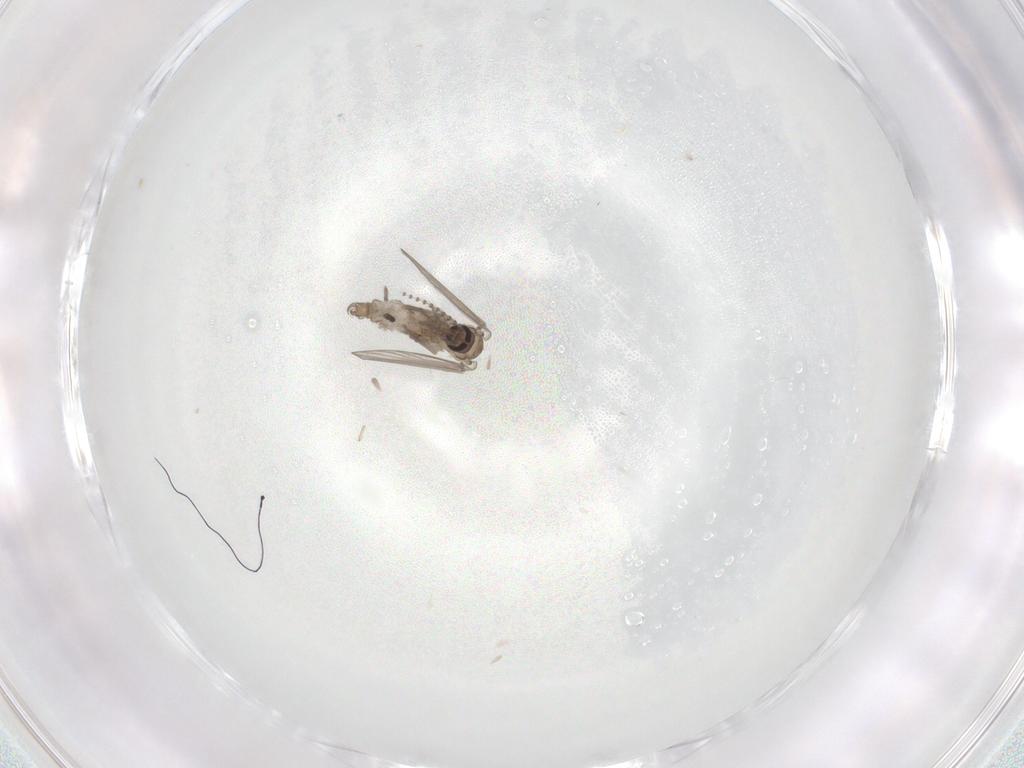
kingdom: Animalia
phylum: Arthropoda
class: Insecta
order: Diptera
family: Psychodidae
